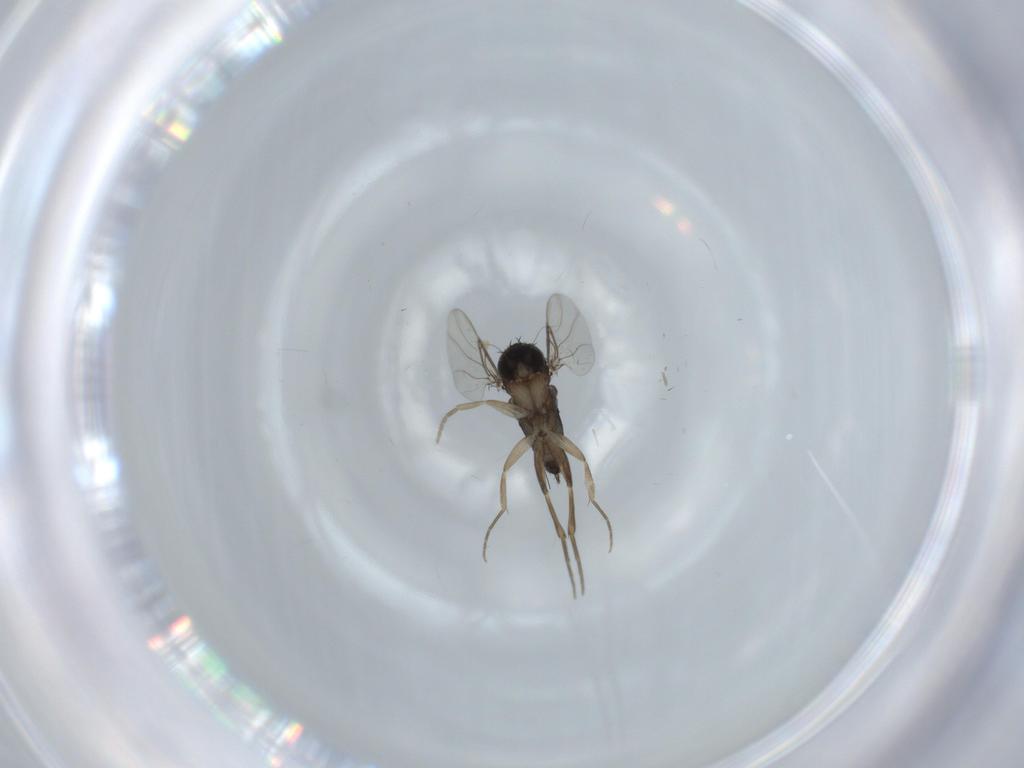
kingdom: Animalia
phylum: Arthropoda
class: Insecta
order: Diptera
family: Phoridae
